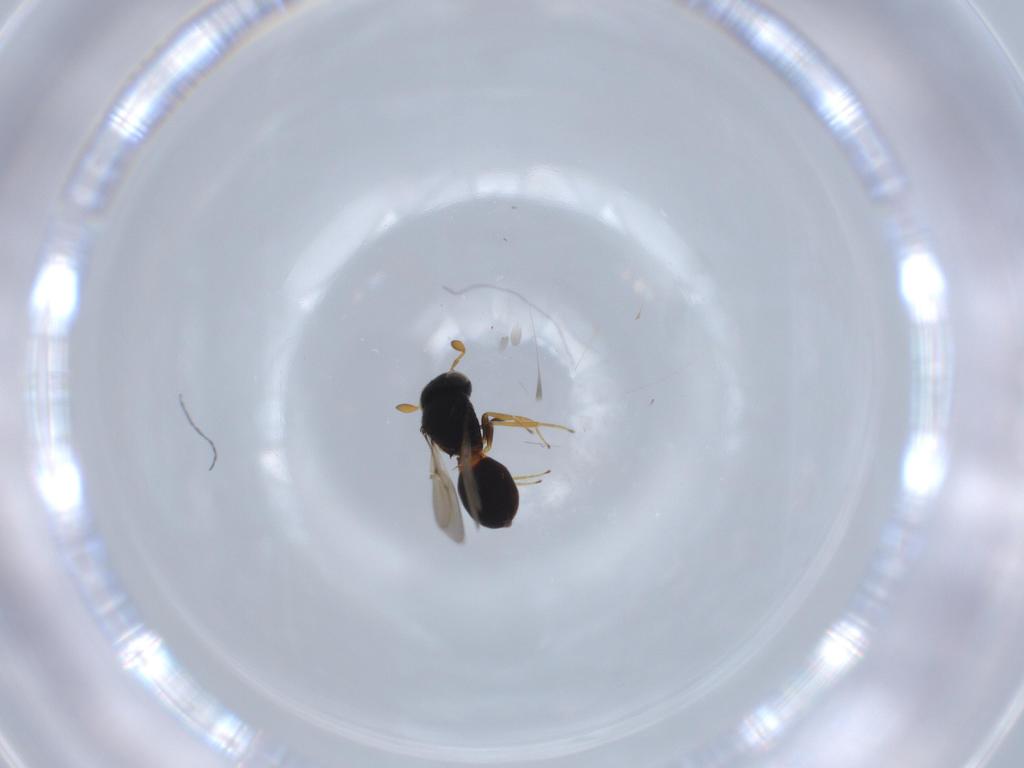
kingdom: Animalia
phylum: Arthropoda
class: Insecta
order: Hymenoptera
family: Scelionidae
